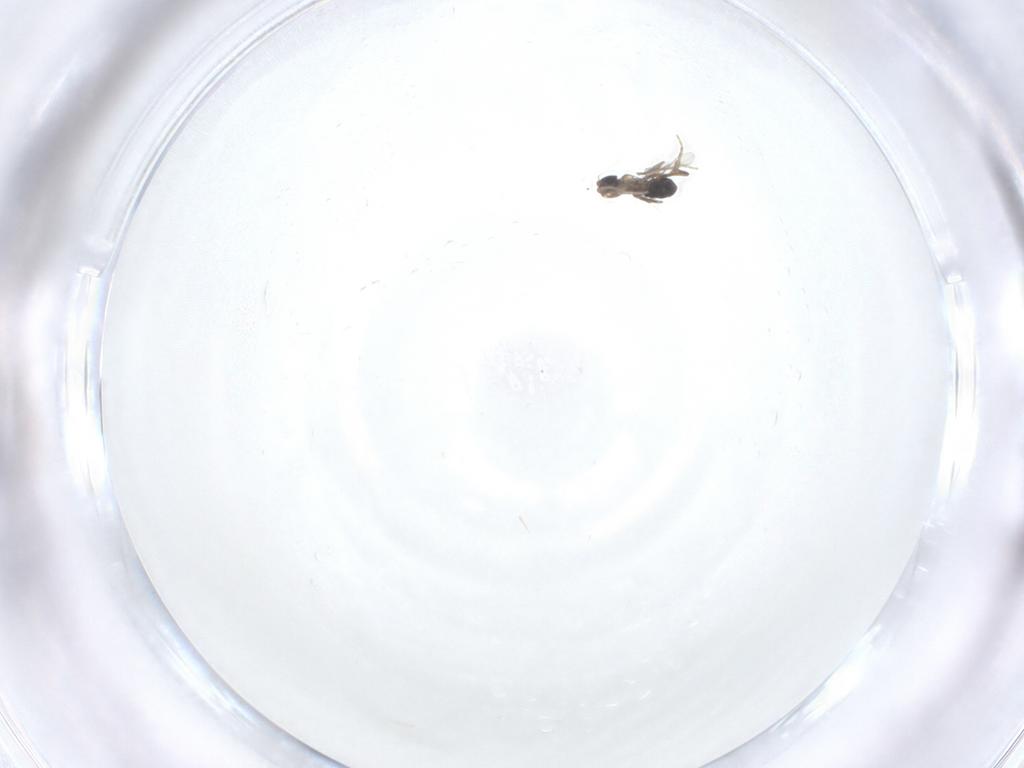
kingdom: Animalia
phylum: Arthropoda
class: Insecta
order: Diptera
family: Phoridae
